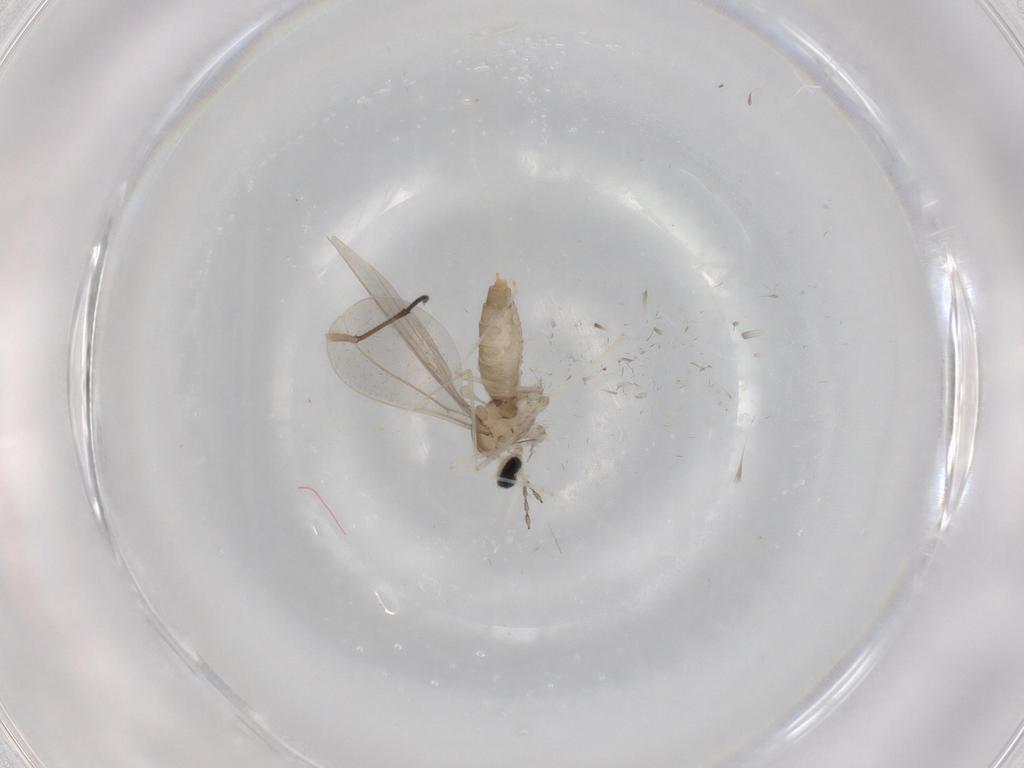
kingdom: Animalia
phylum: Arthropoda
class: Insecta
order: Diptera
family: Cecidomyiidae
